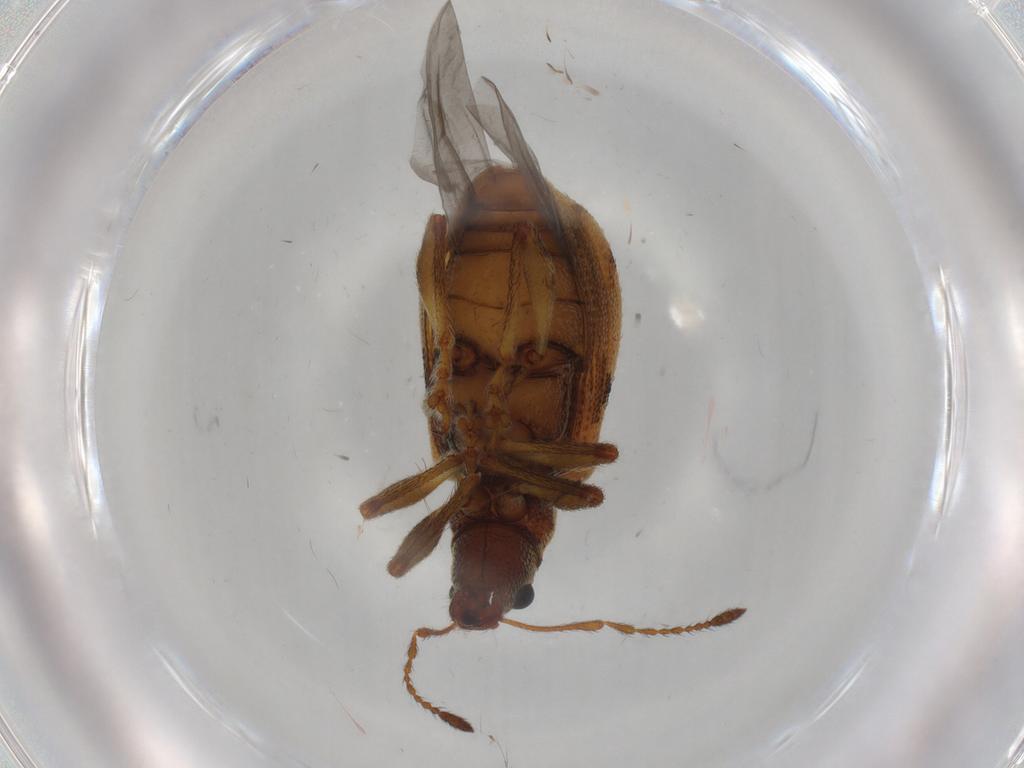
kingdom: Animalia
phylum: Arthropoda
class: Insecta
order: Coleoptera
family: Curculionidae
